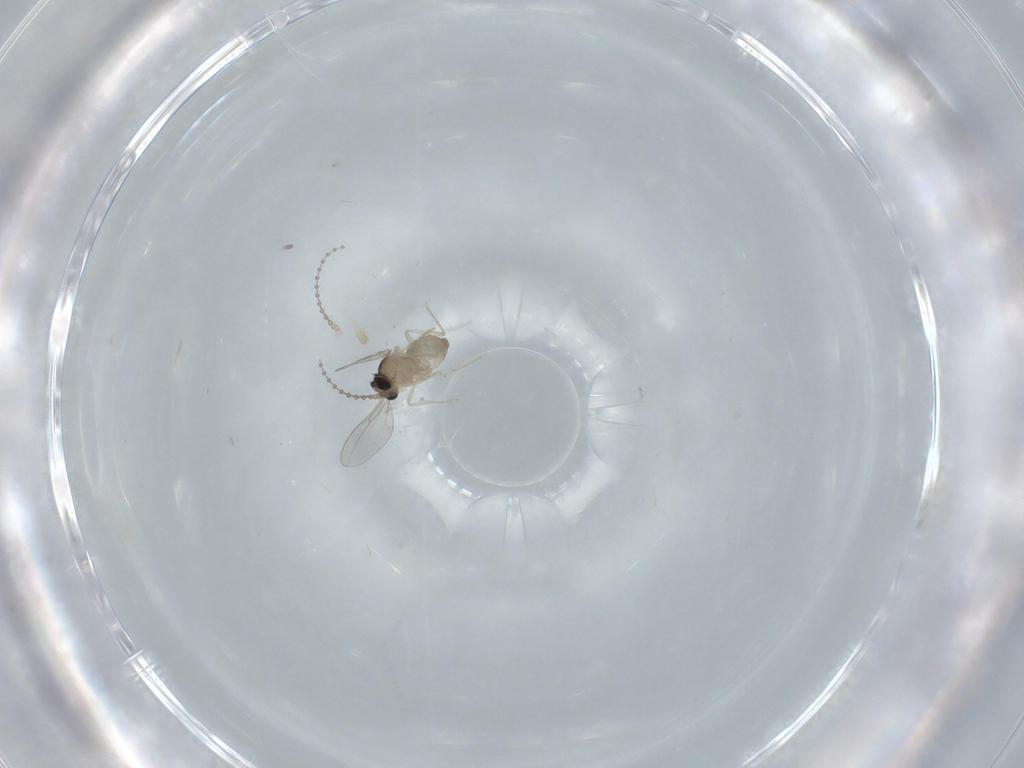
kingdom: Animalia
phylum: Arthropoda
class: Insecta
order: Diptera
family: Cecidomyiidae
